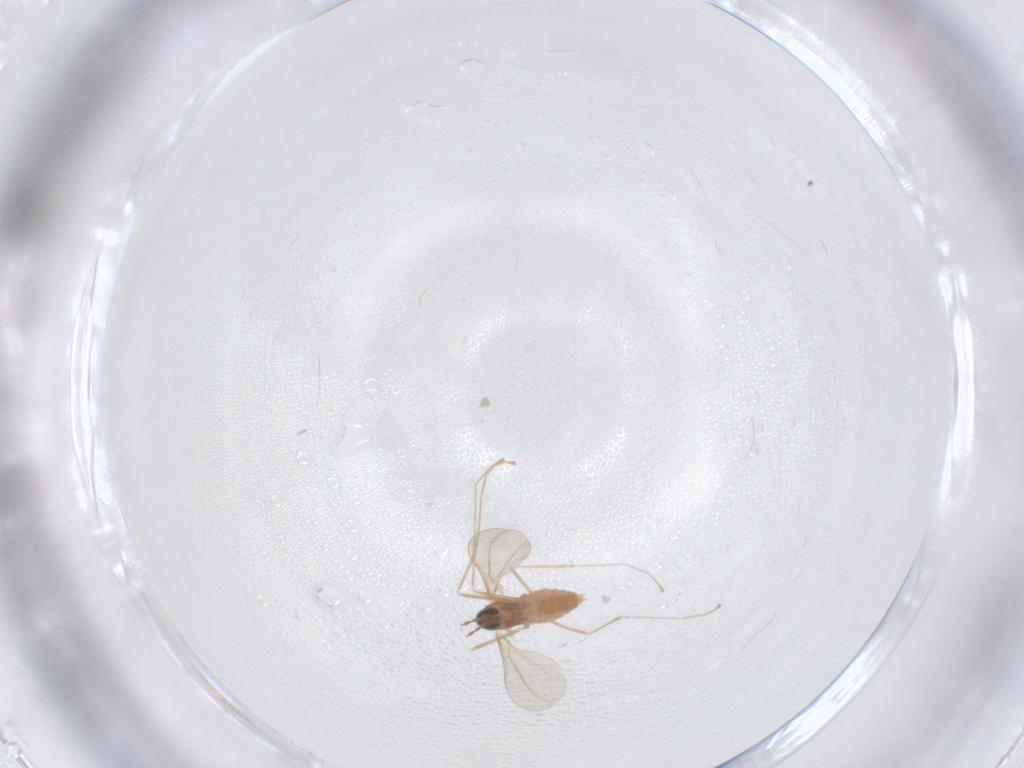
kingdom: Animalia
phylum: Arthropoda
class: Insecta
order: Diptera
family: Cecidomyiidae
